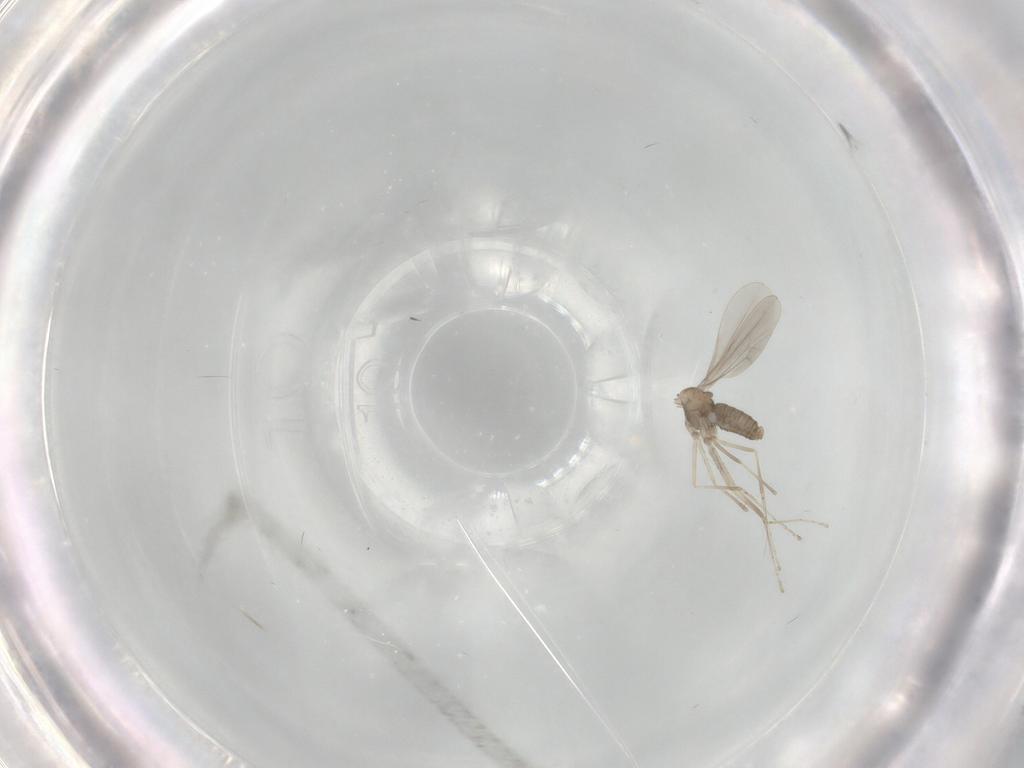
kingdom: Animalia
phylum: Arthropoda
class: Insecta
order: Diptera
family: Cecidomyiidae
